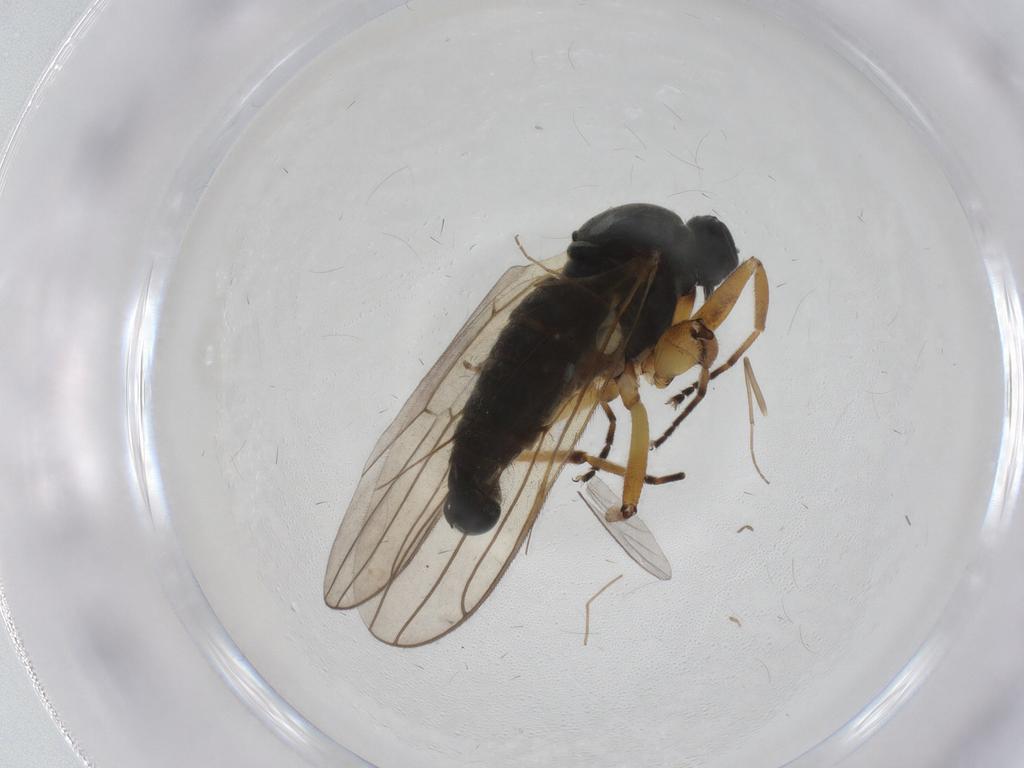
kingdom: Animalia
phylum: Arthropoda
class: Insecta
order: Diptera
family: Hybotidae
